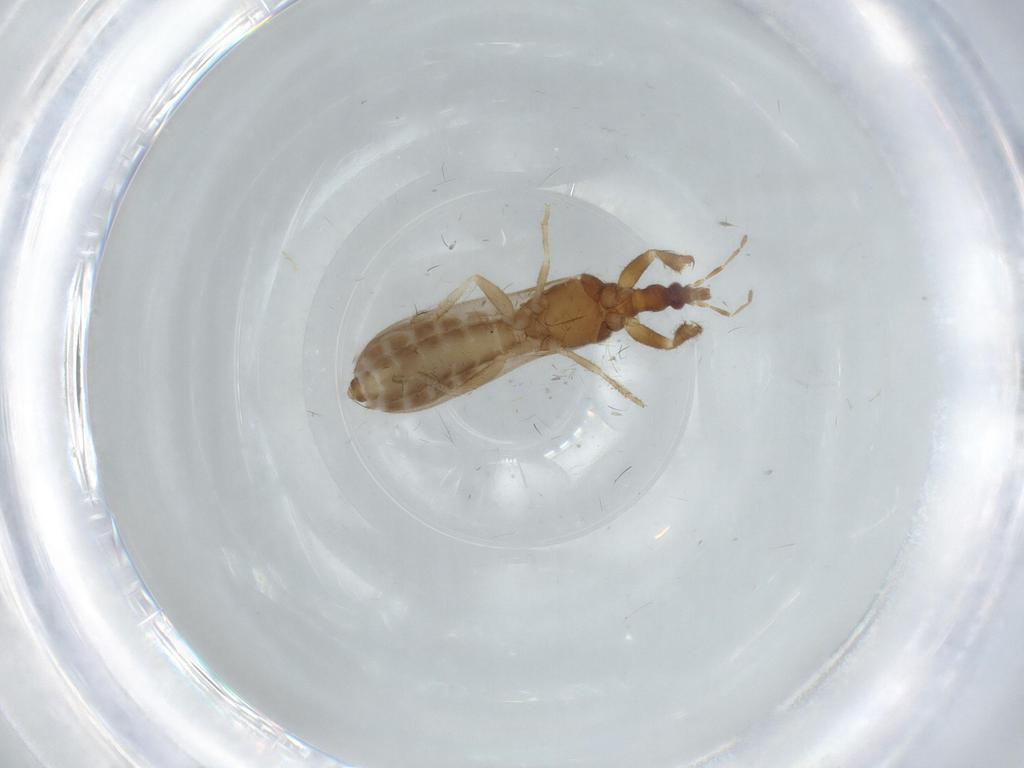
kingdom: Animalia
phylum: Arthropoda
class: Insecta
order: Hemiptera
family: Enicocephalidae
